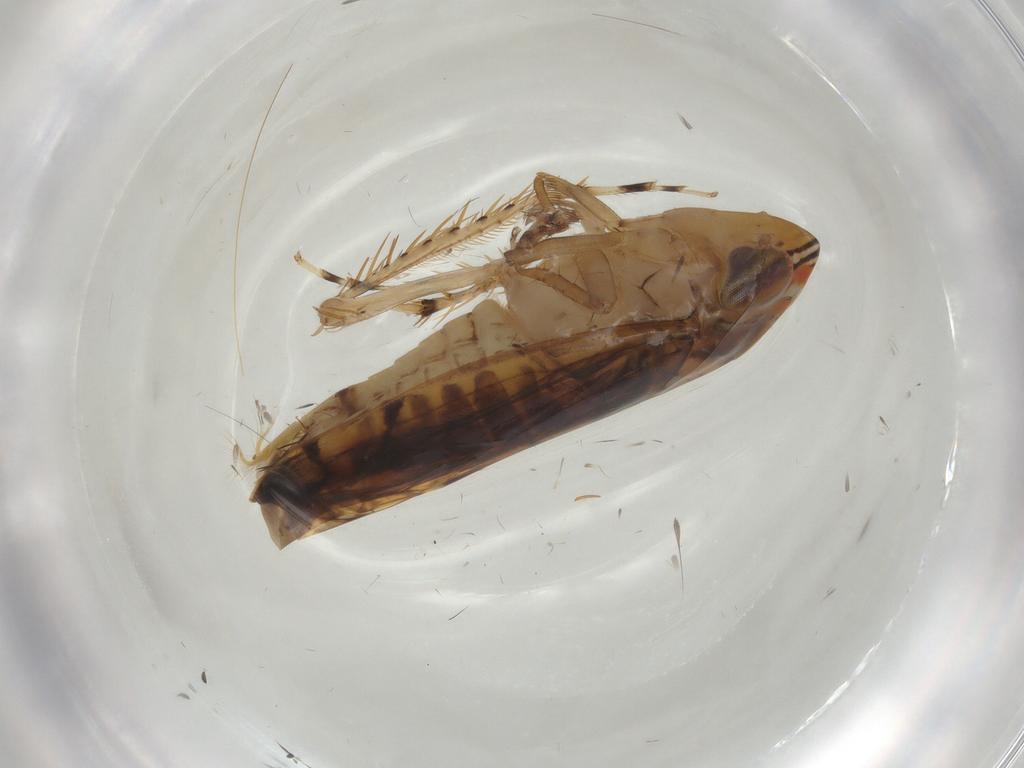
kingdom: Animalia
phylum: Arthropoda
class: Insecta
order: Hemiptera
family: Cicadellidae
